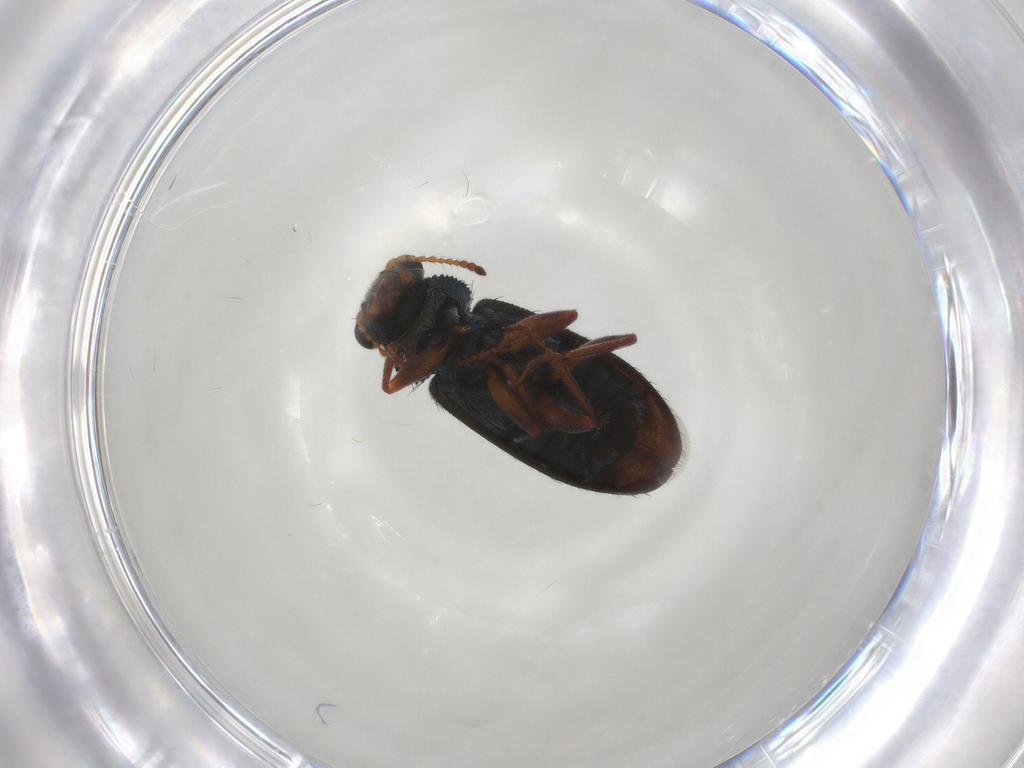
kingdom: Animalia
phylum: Arthropoda
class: Insecta
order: Coleoptera
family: Melyridae
